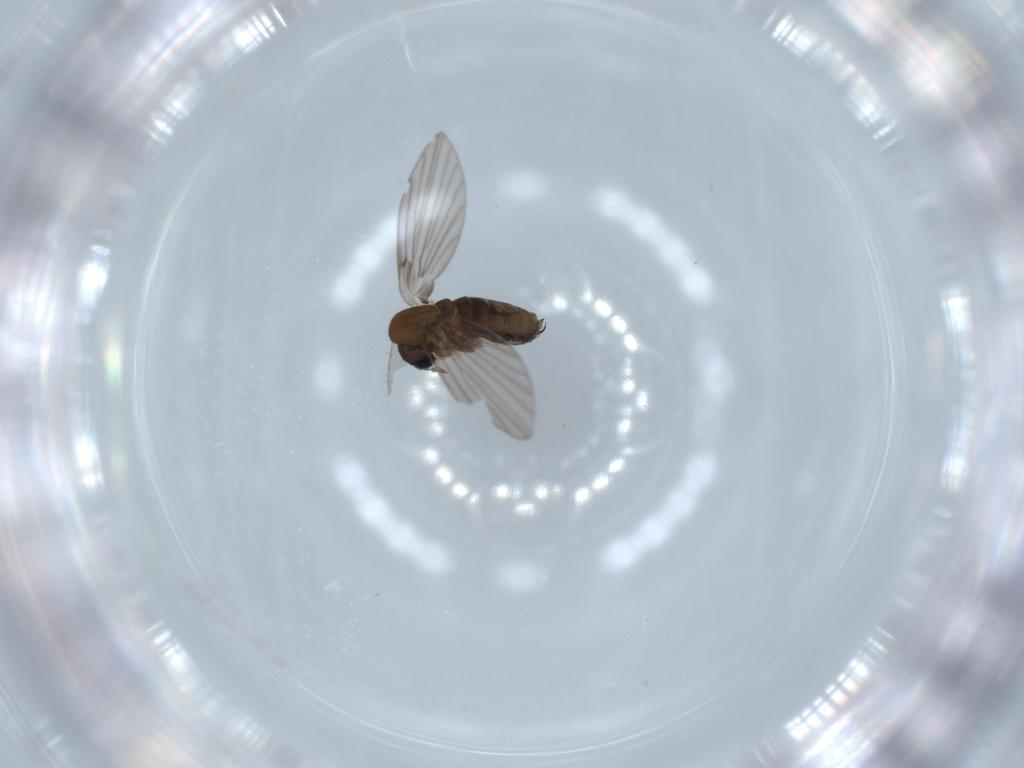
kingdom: Animalia
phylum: Arthropoda
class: Insecta
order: Diptera
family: Psychodidae
